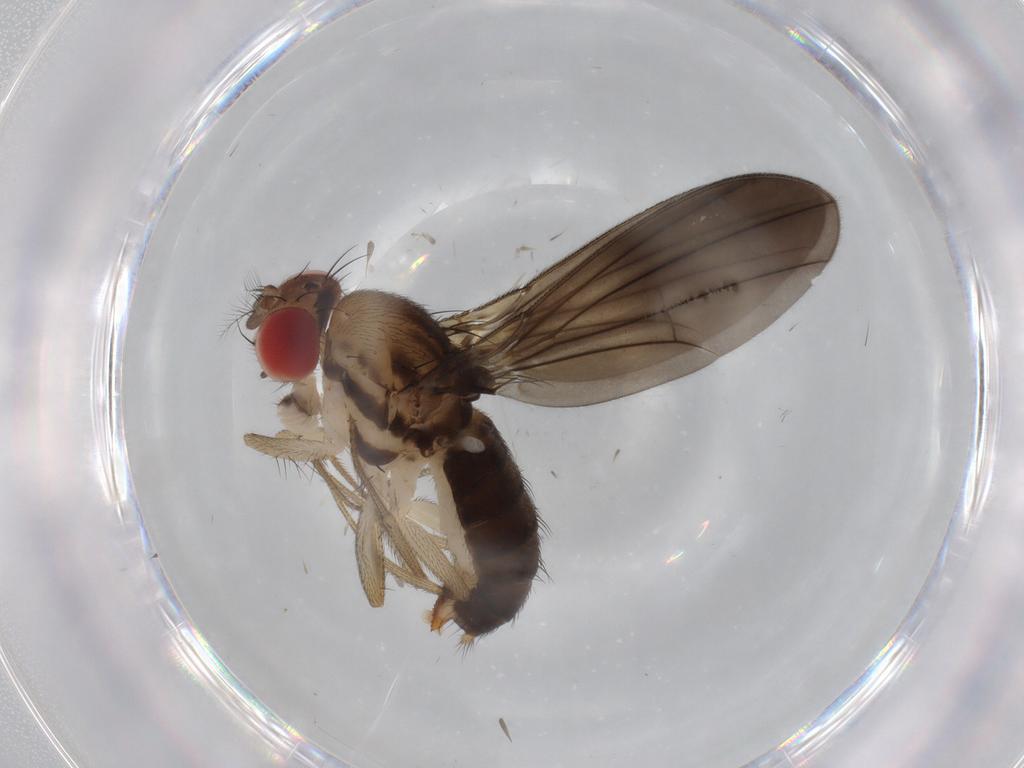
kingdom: Animalia
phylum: Arthropoda
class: Insecta
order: Diptera
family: Drosophilidae
